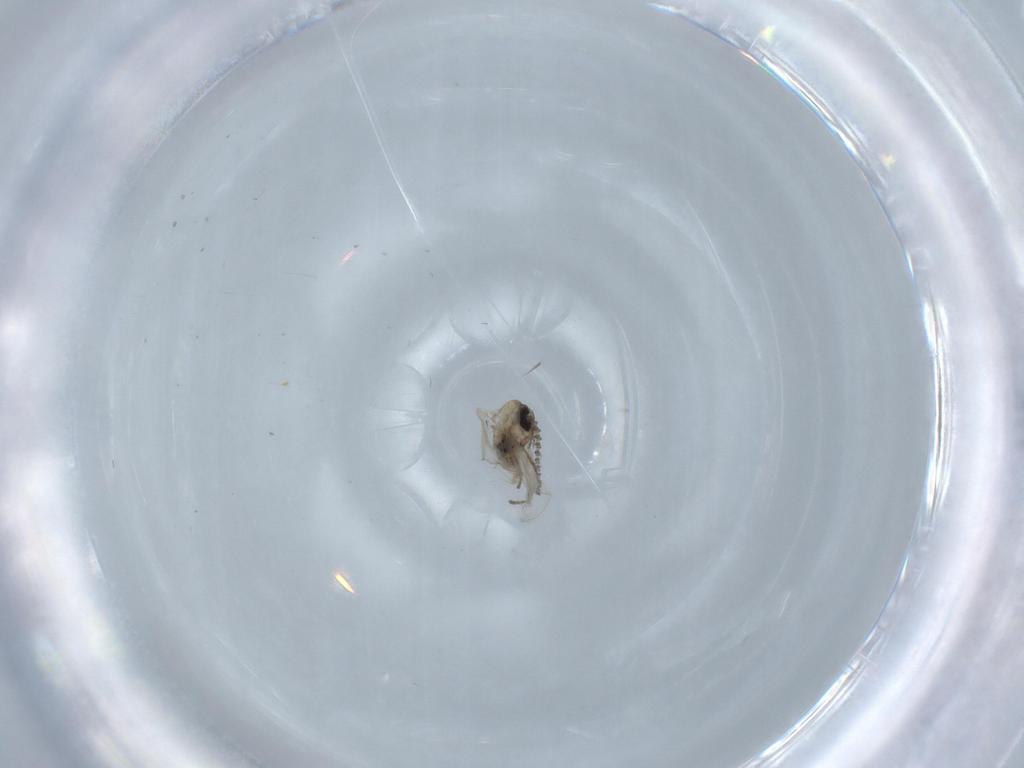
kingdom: Animalia
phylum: Arthropoda
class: Insecta
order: Diptera
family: Psychodidae
